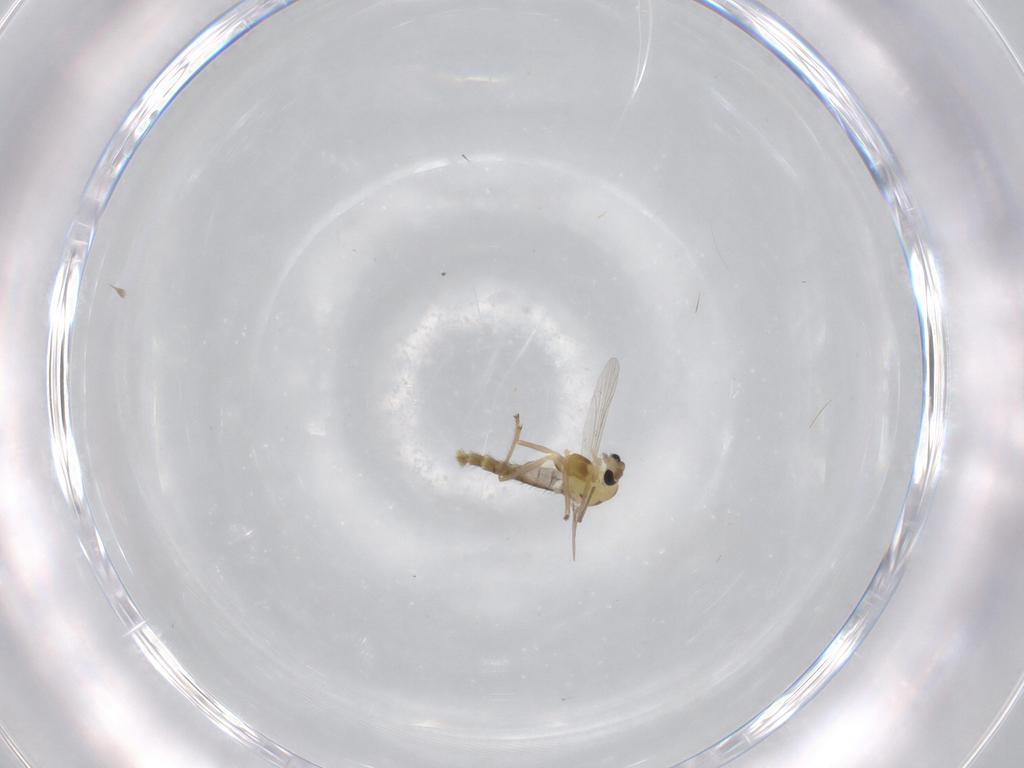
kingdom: Animalia
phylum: Arthropoda
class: Insecta
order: Diptera
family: Chironomidae
